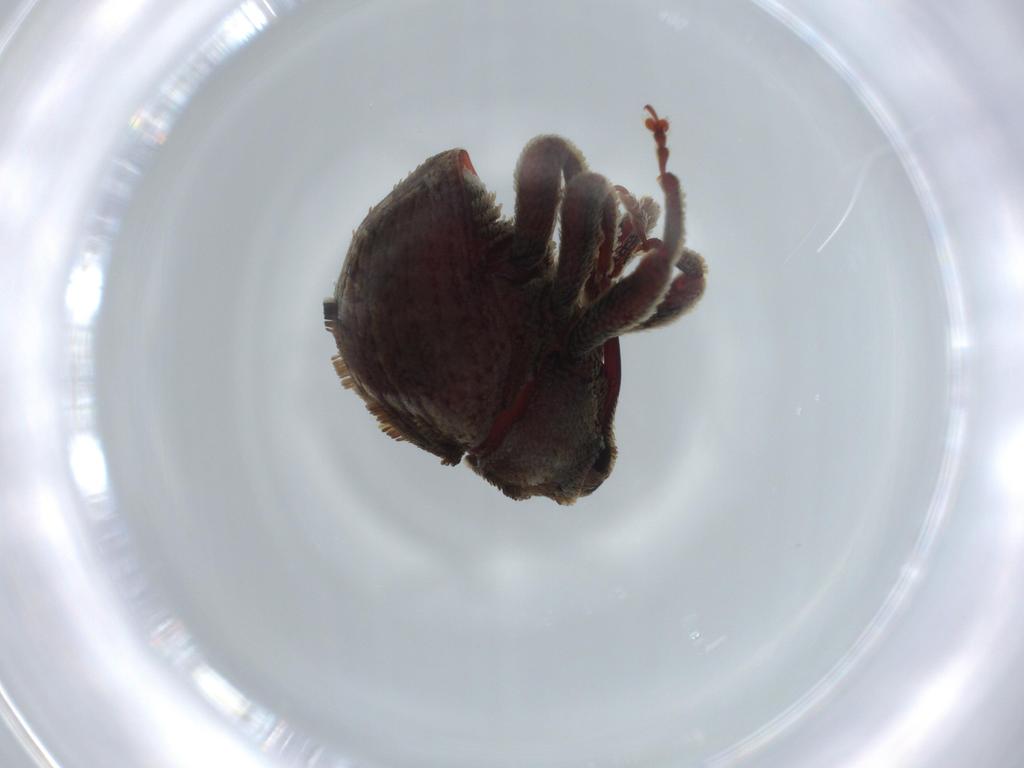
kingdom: Animalia
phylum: Arthropoda
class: Insecta
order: Coleoptera
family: Curculionidae
